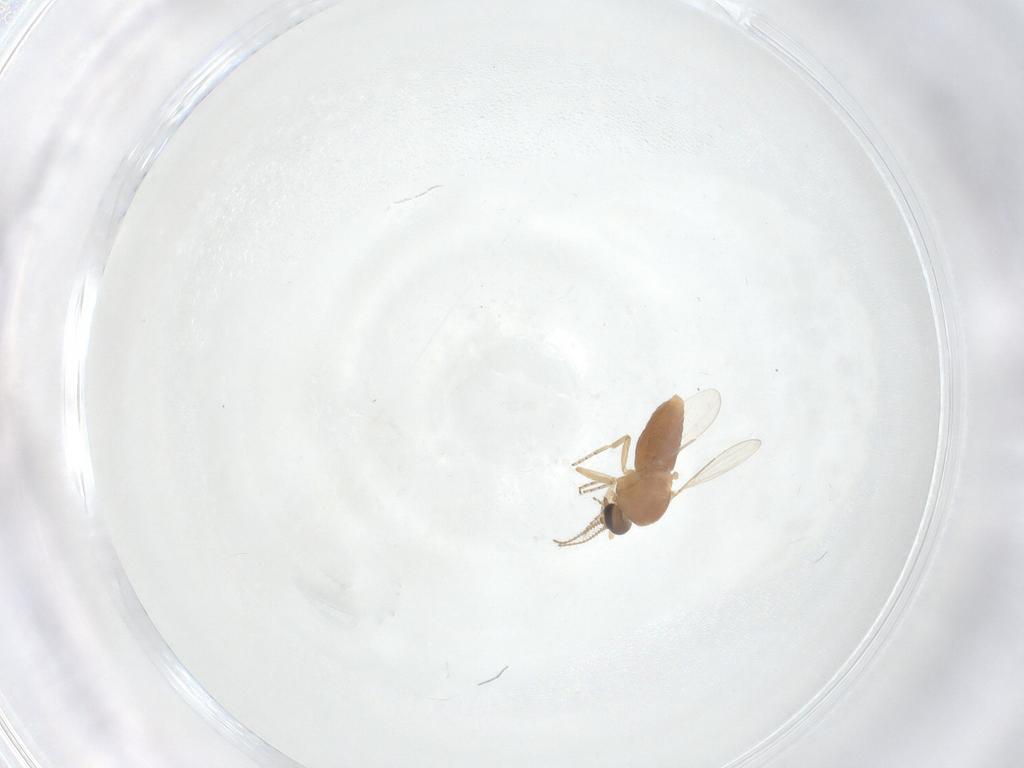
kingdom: Animalia
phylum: Arthropoda
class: Insecta
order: Diptera
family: Ceratopogonidae
